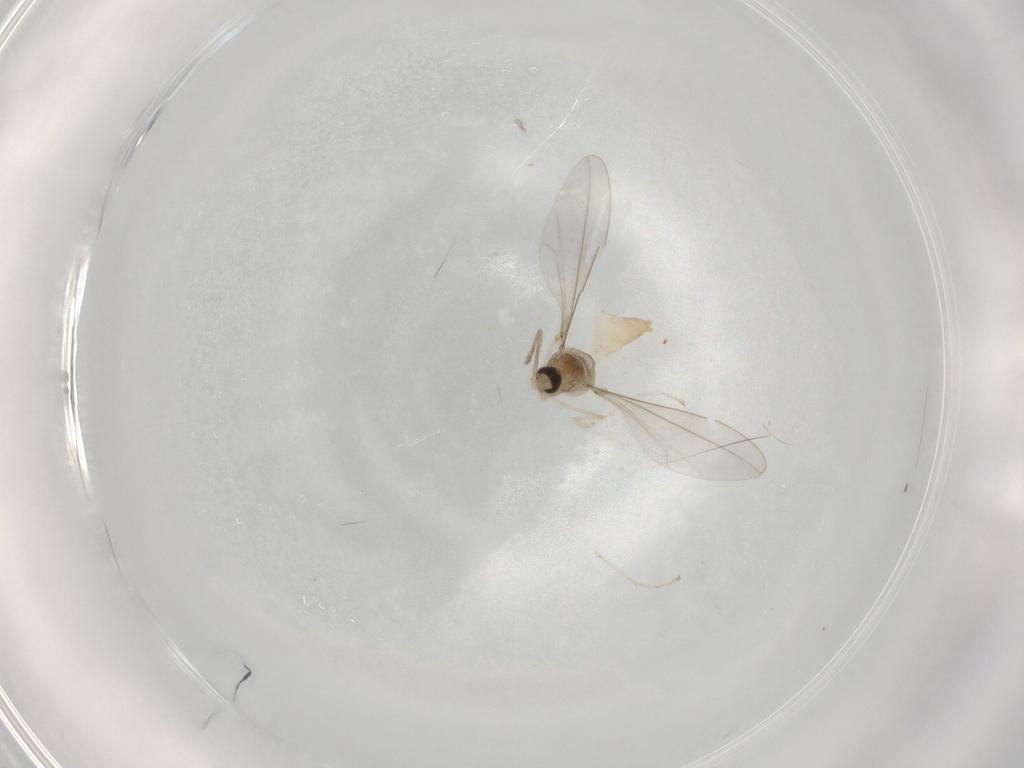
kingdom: Animalia
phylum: Arthropoda
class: Insecta
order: Diptera
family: Cecidomyiidae
